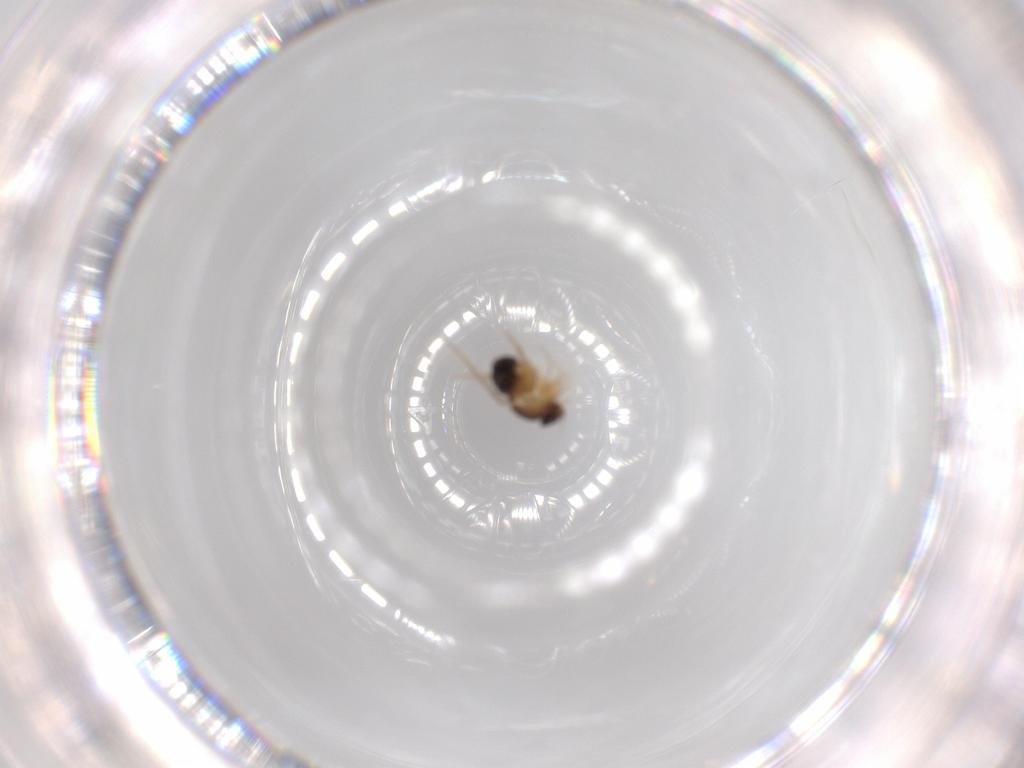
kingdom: Animalia
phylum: Arthropoda
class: Insecta
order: Diptera
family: Phoridae
